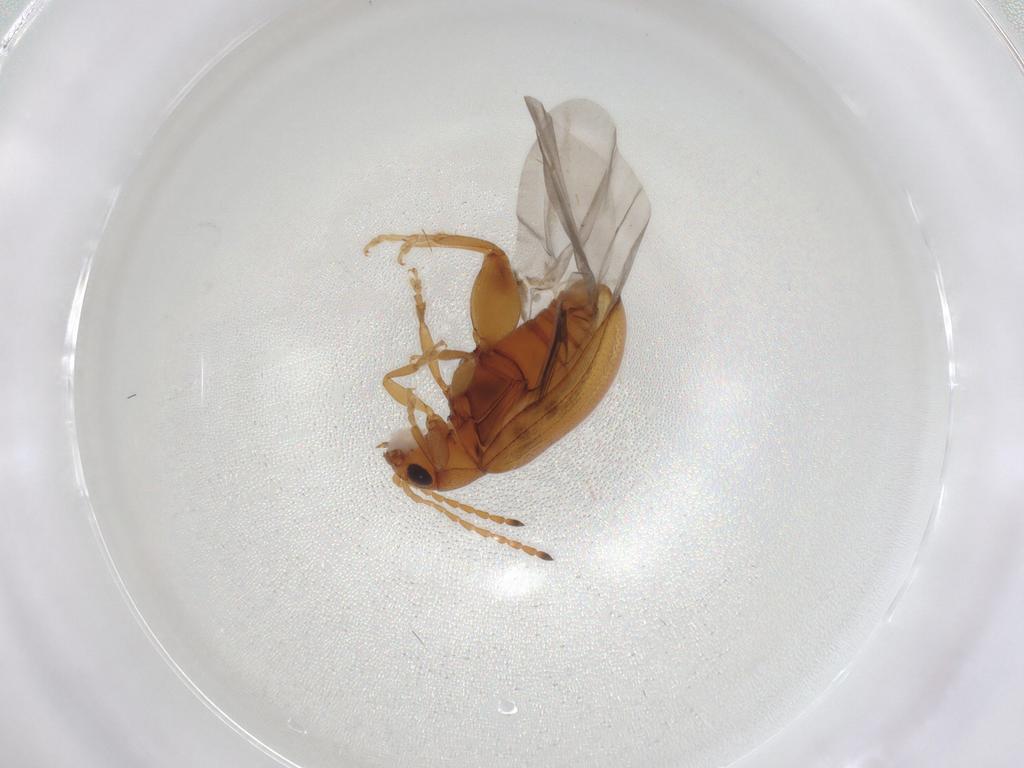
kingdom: Animalia
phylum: Arthropoda
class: Insecta
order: Coleoptera
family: Chrysomelidae
